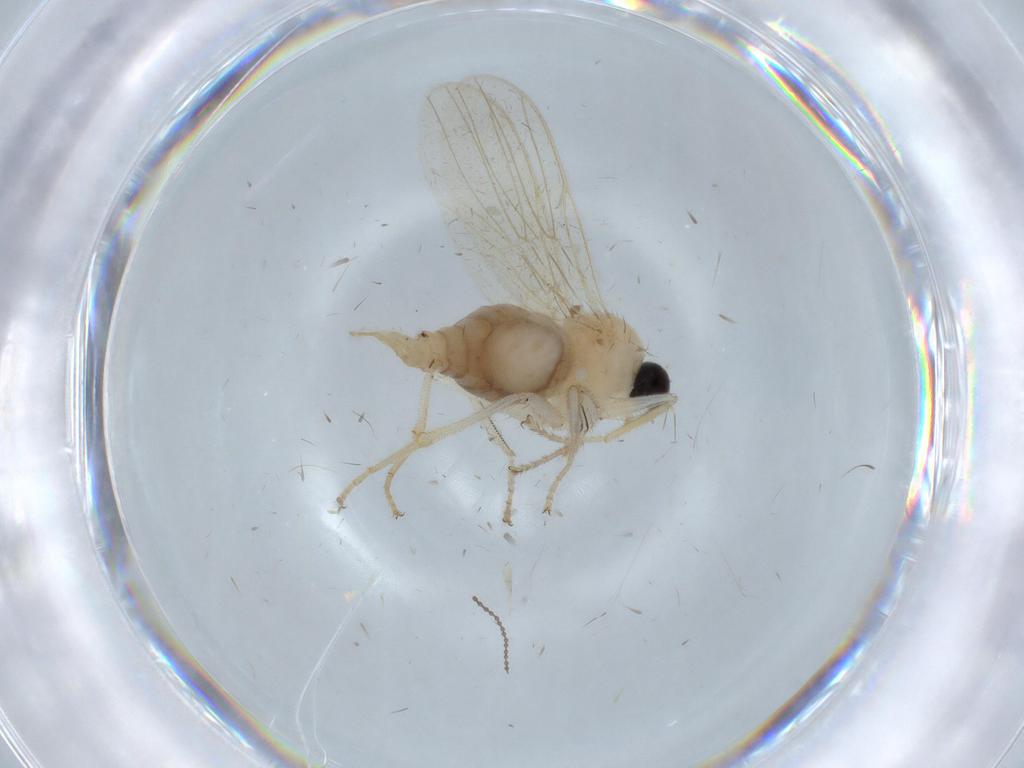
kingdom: Animalia
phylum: Arthropoda
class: Insecta
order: Diptera
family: Hybotidae
